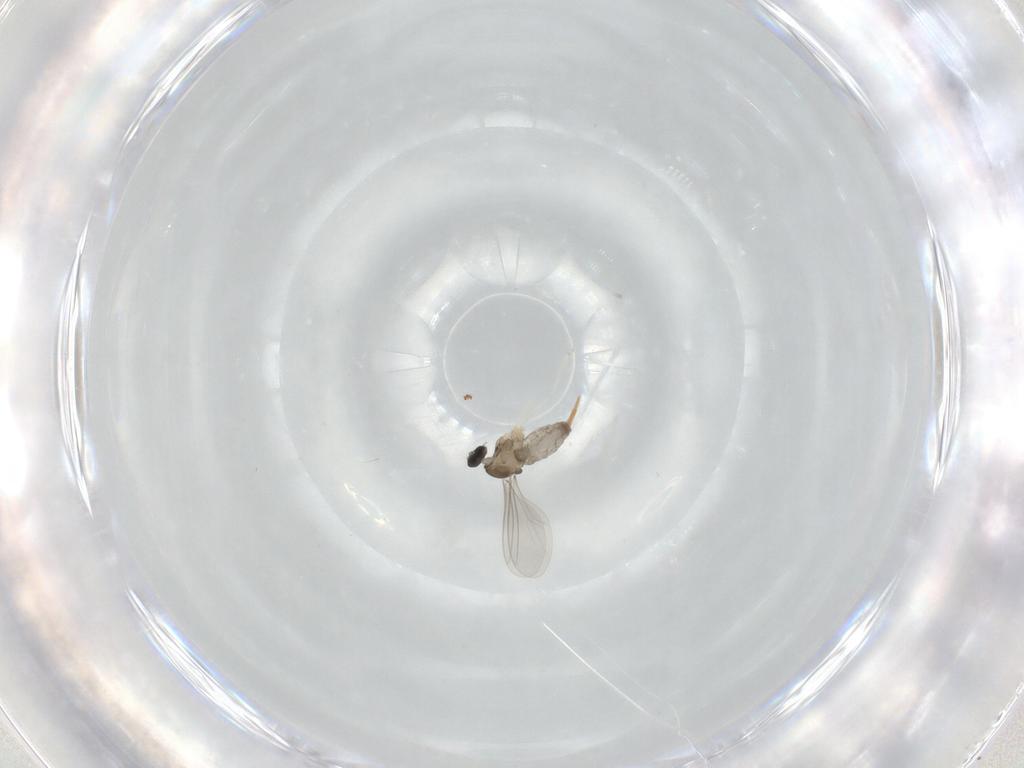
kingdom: Animalia
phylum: Arthropoda
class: Insecta
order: Diptera
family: Cecidomyiidae
